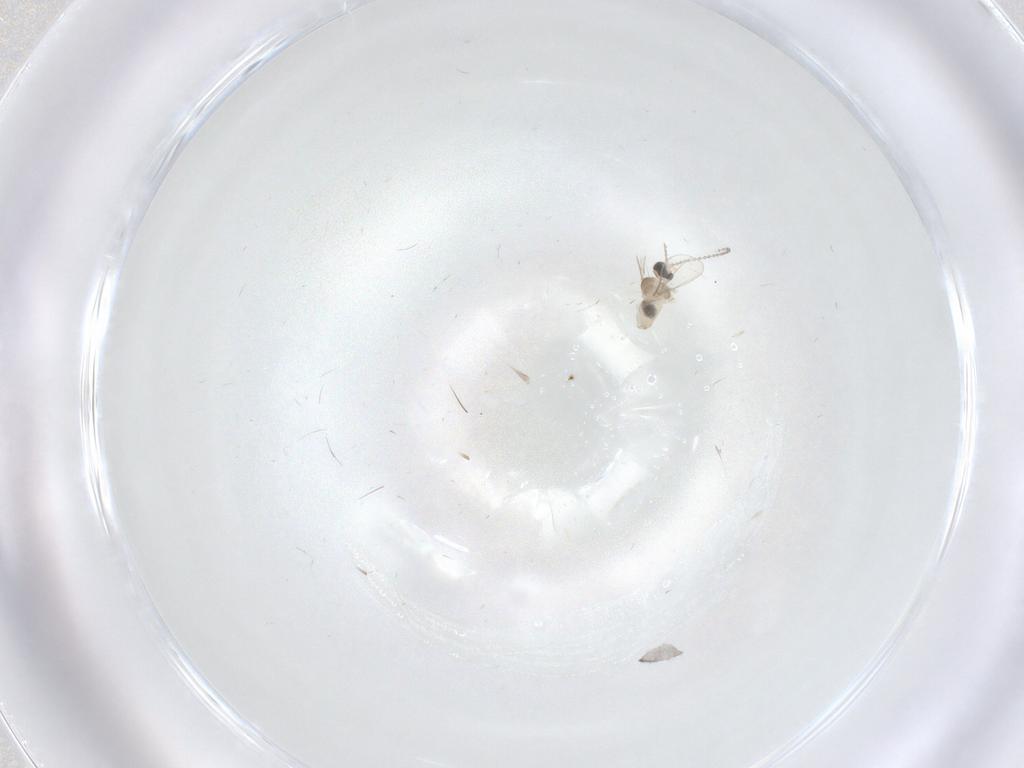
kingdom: Animalia
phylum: Arthropoda
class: Insecta
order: Diptera
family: Cecidomyiidae
